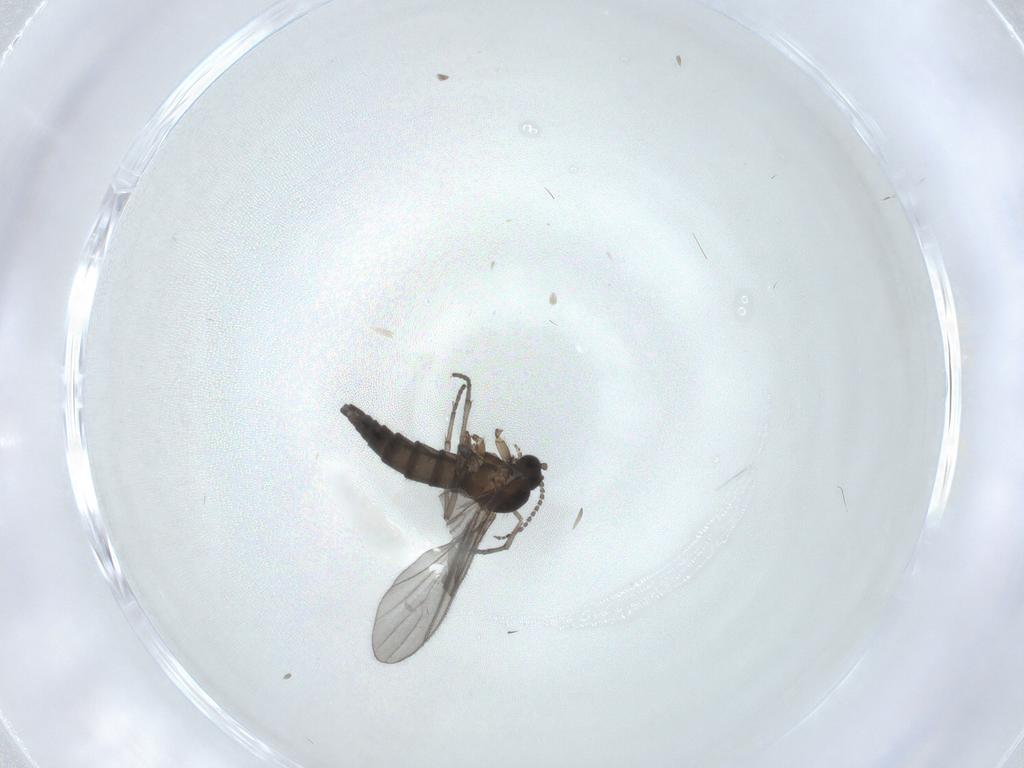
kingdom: Animalia
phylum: Arthropoda
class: Insecta
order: Diptera
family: Sciaridae
